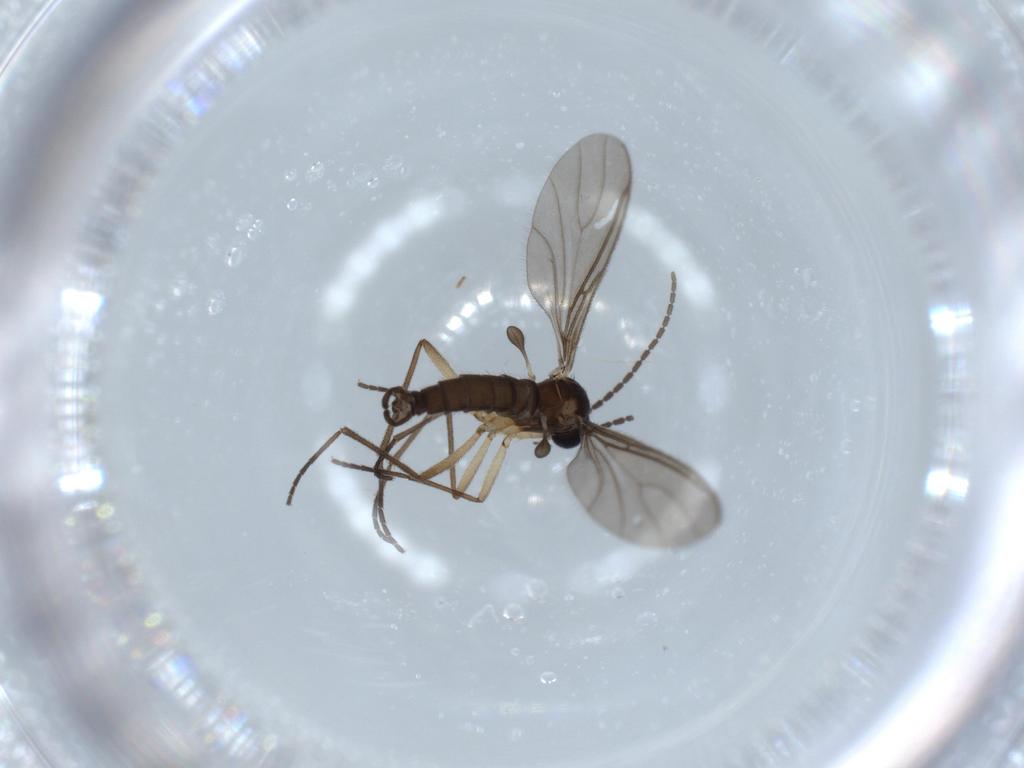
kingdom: Animalia
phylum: Arthropoda
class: Insecta
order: Diptera
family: Sciaridae
